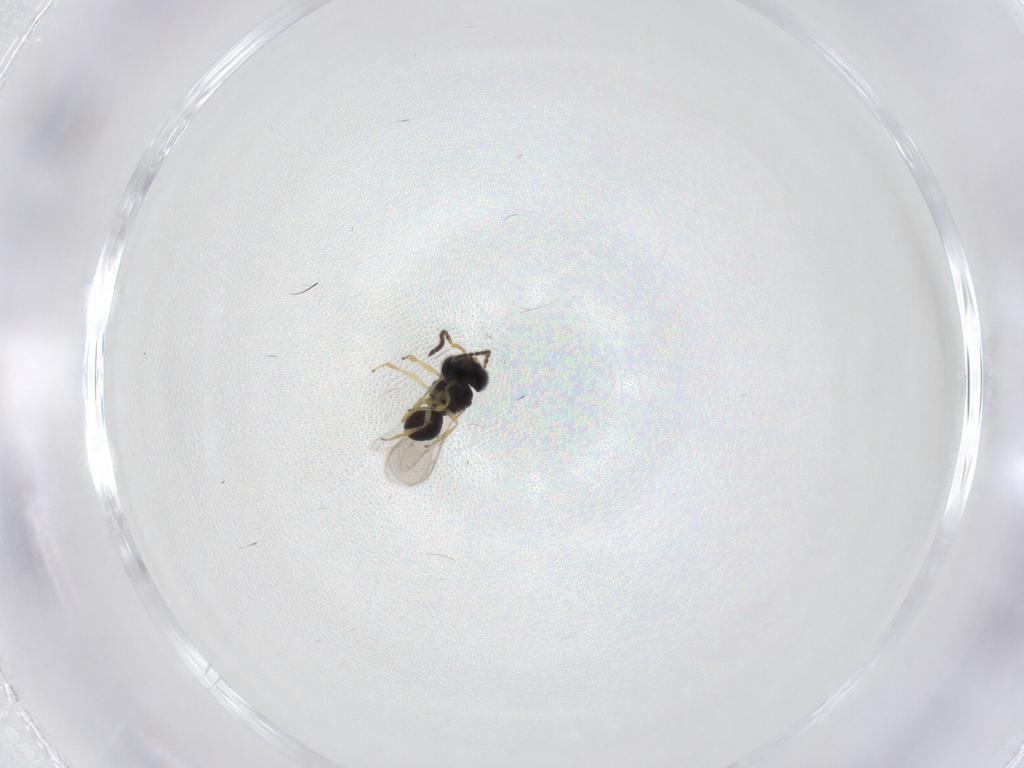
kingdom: Animalia
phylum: Arthropoda
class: Insecta
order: Hymenoptera
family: Scelionidae
